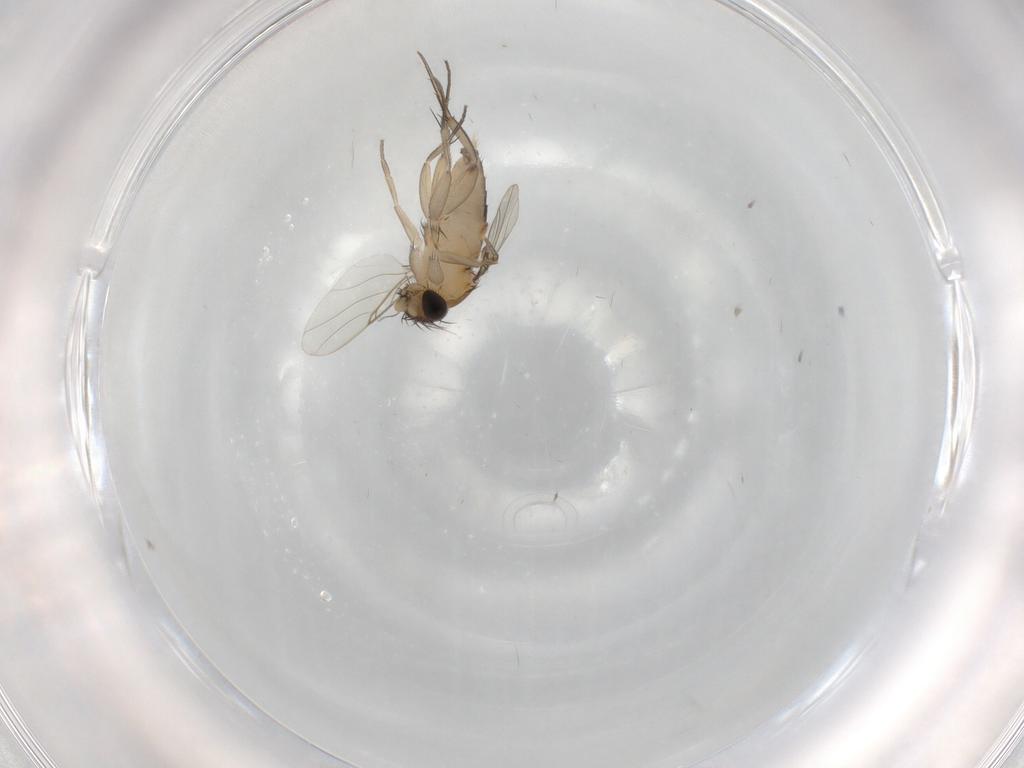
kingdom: Animalia
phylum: Arthropoda
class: Insecta
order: Diptera
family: Phoridae
